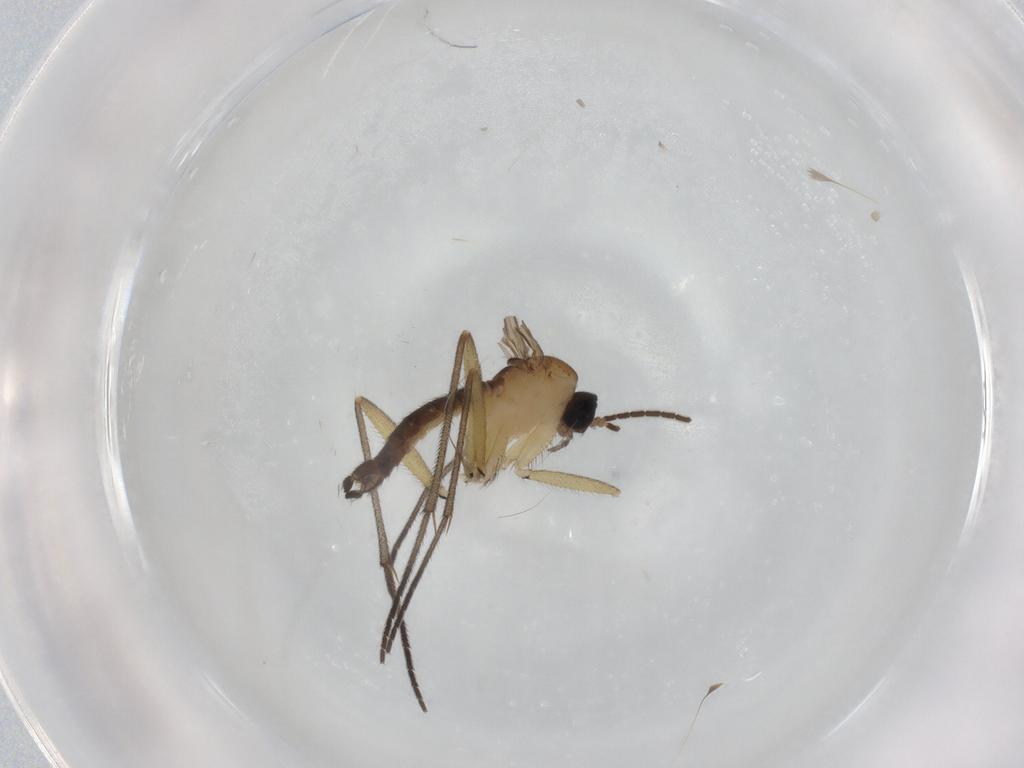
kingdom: Animalia
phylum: Arthropoda
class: Insecta
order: Diptera
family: Sciaridae
